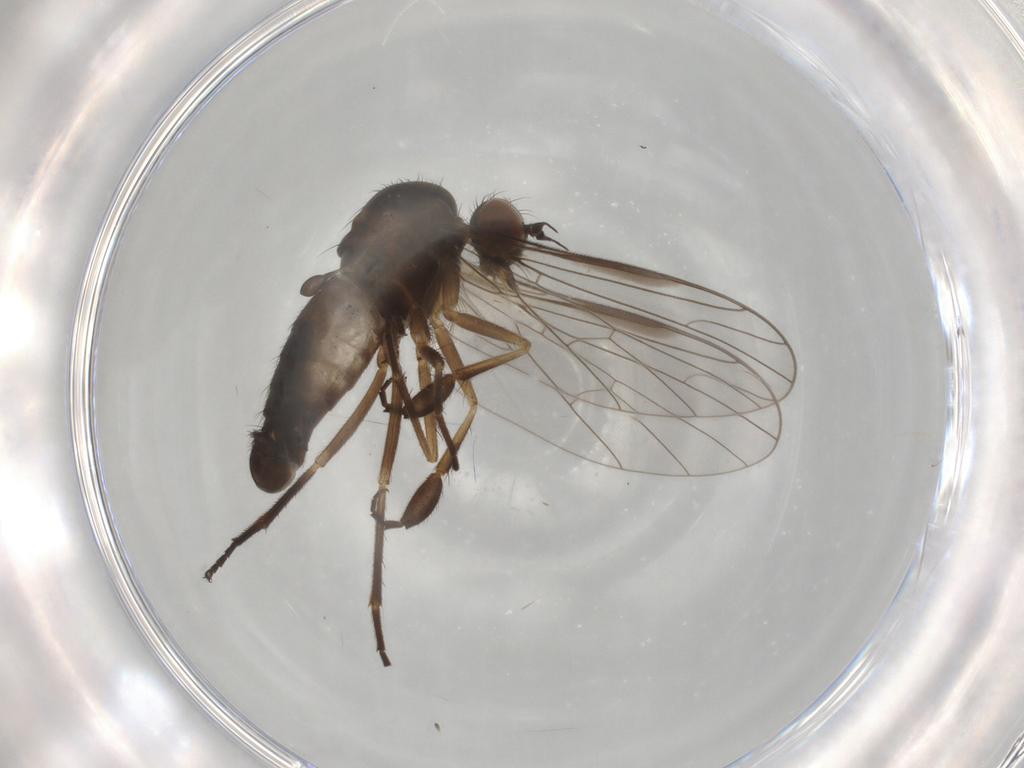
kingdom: Animalia
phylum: Arthropoda
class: Insecta
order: Diptera
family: Empididae
